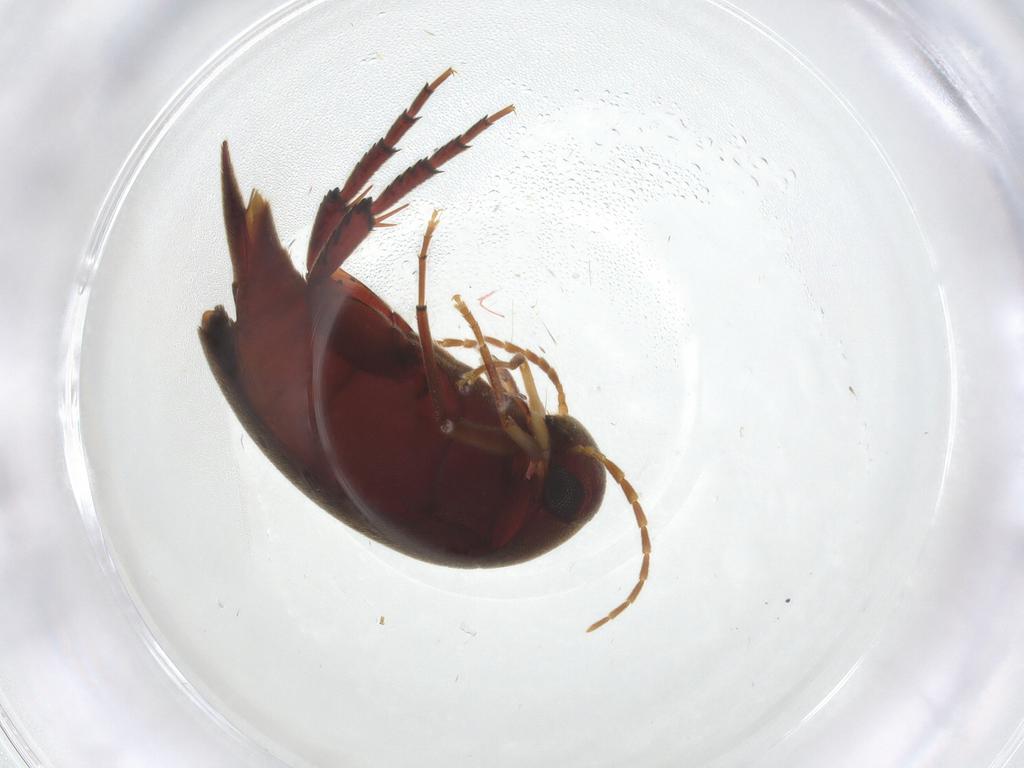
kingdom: Animalia
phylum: Arthropoda
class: Insecta
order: Coleoptera
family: Mordellidae
